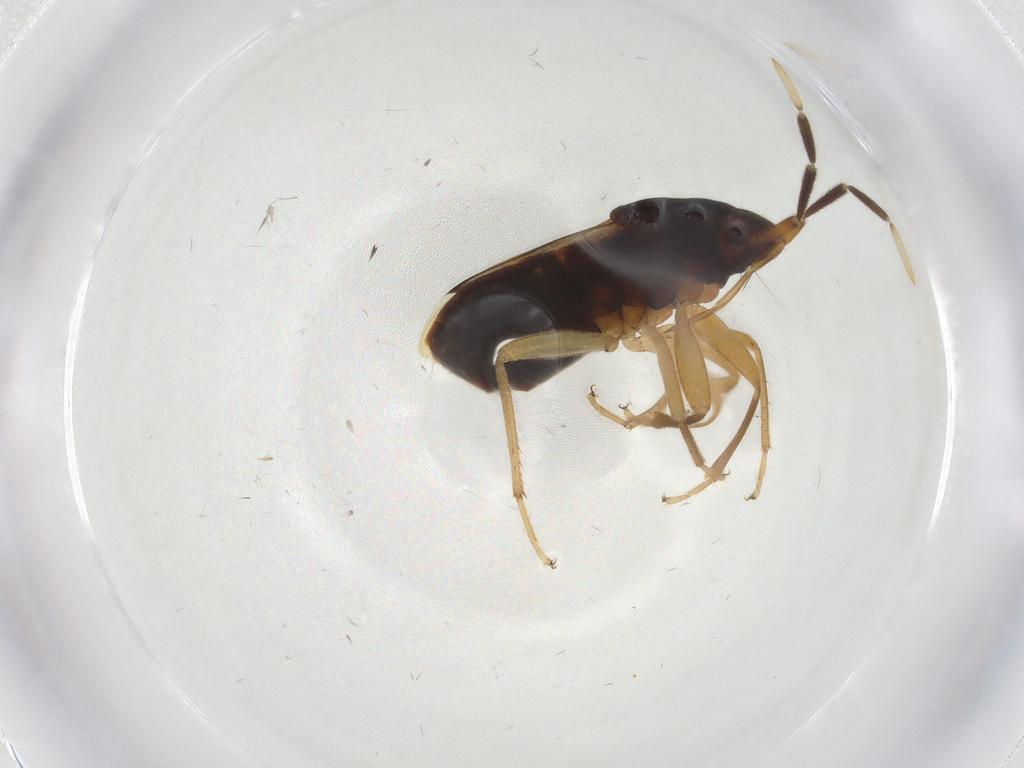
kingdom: Animalia
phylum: Arthropoda
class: Insecta
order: Hemiptera
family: Rhyparochromidae
